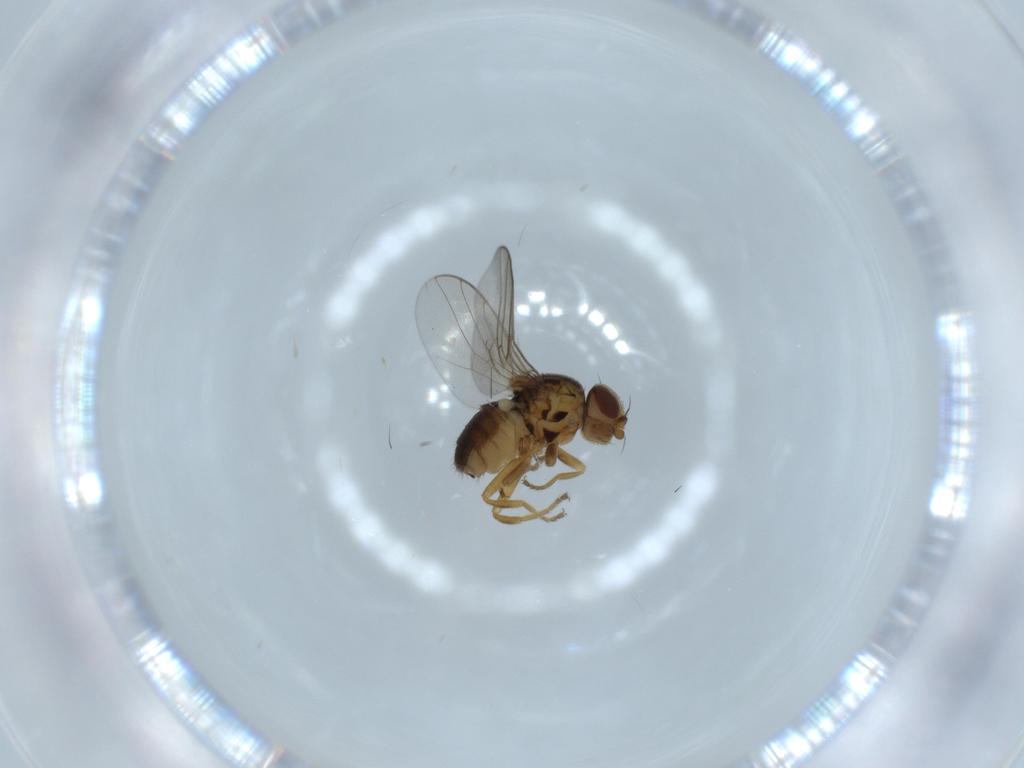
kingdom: Animalia
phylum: Arthropoda
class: Insecta
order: Diptera
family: Chloropidae
